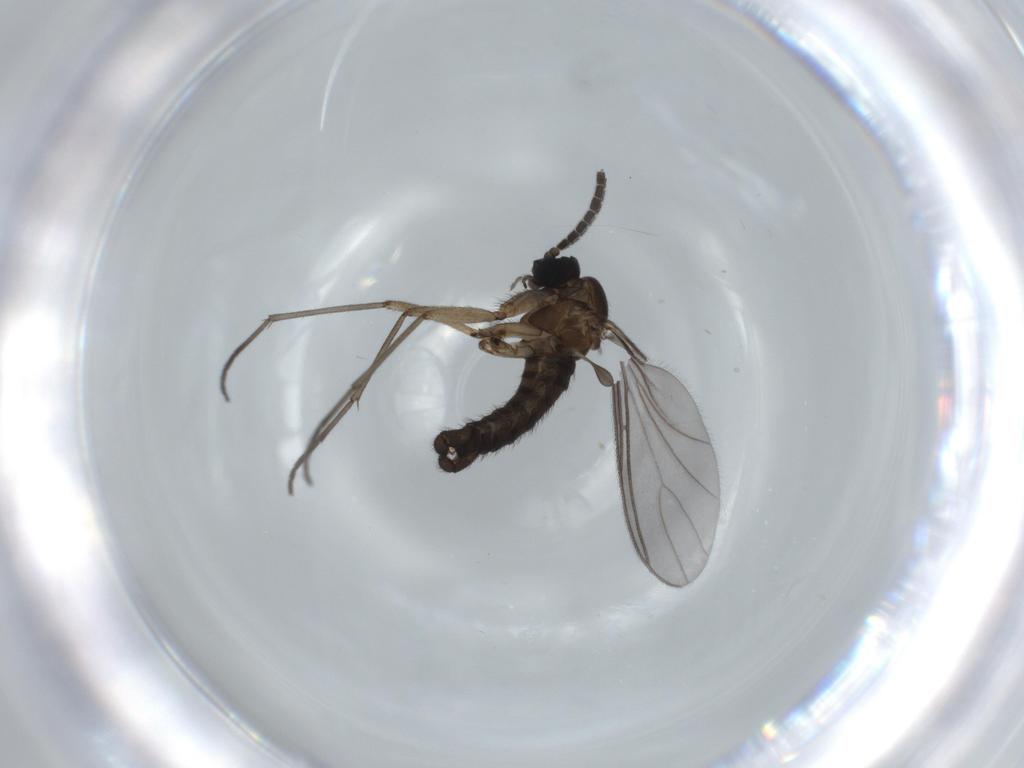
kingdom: Animalia
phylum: Arthropoda
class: Insecta
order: Diptera
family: Sciaridae
